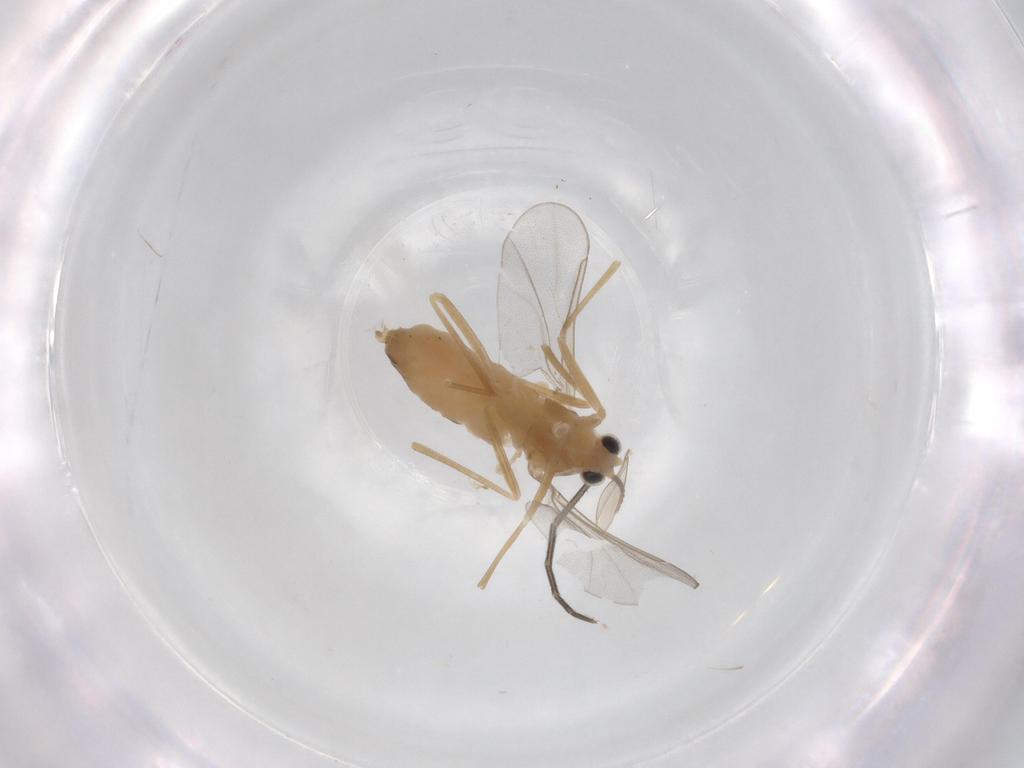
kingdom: Animalia
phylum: Arthropoda
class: Insecta
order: Diptera
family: Cecidomyiidae
